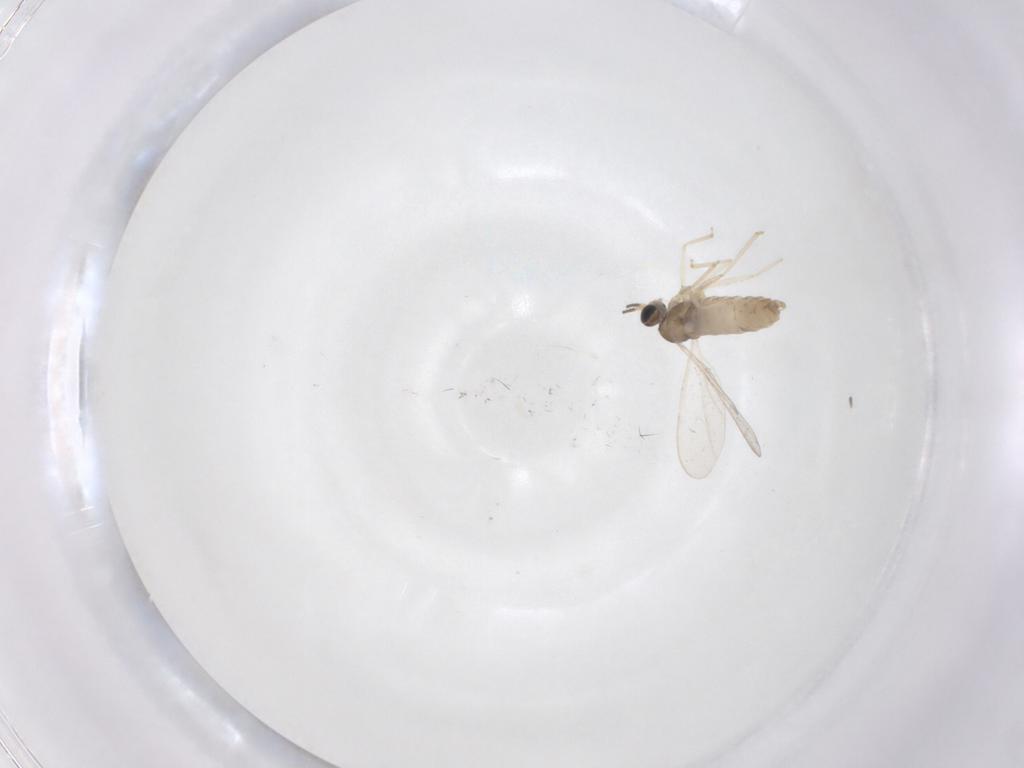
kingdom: Animalia
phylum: Arthropoda
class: Insecta
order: Diptera
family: Cecidomyiidae
